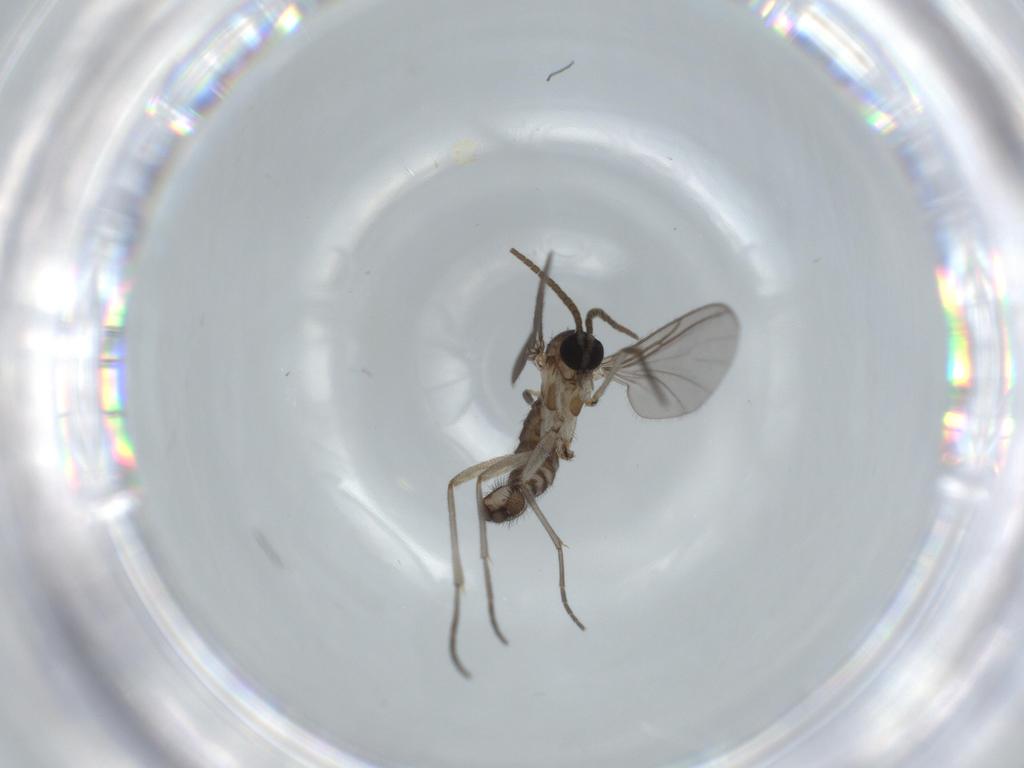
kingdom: Animalia
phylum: Arthropoda
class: Insecta
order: Diptera
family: Sciaridae
